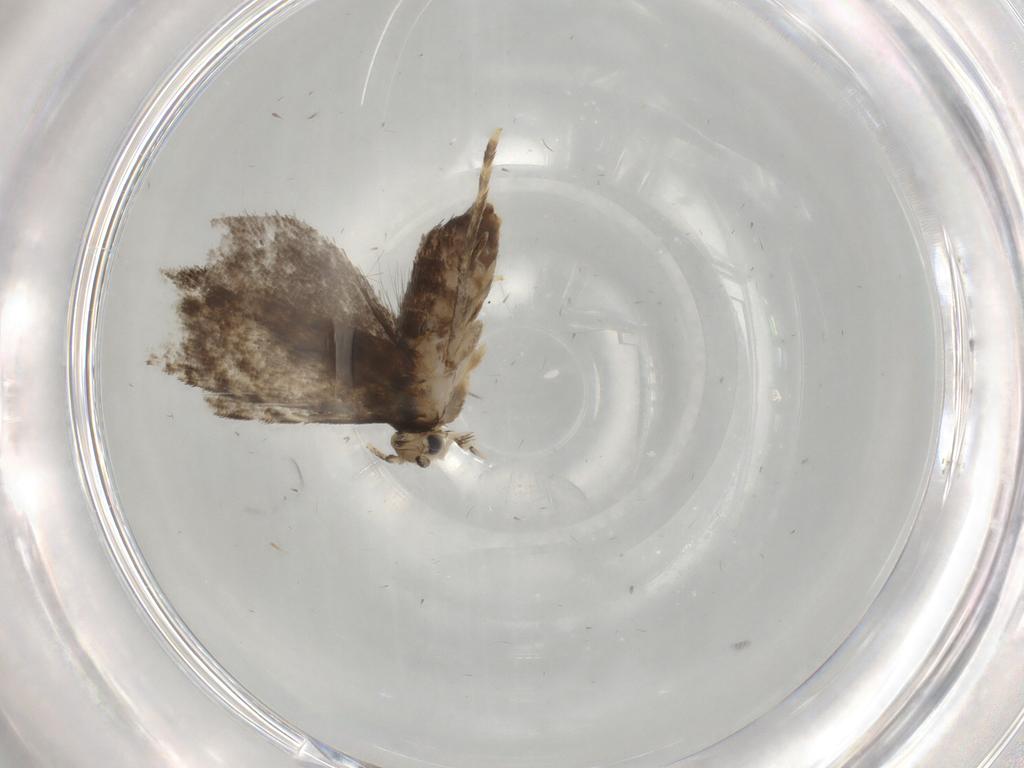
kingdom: Animalia
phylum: Arthropoda
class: Insecta
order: Lepidoptera
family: Tineidae
